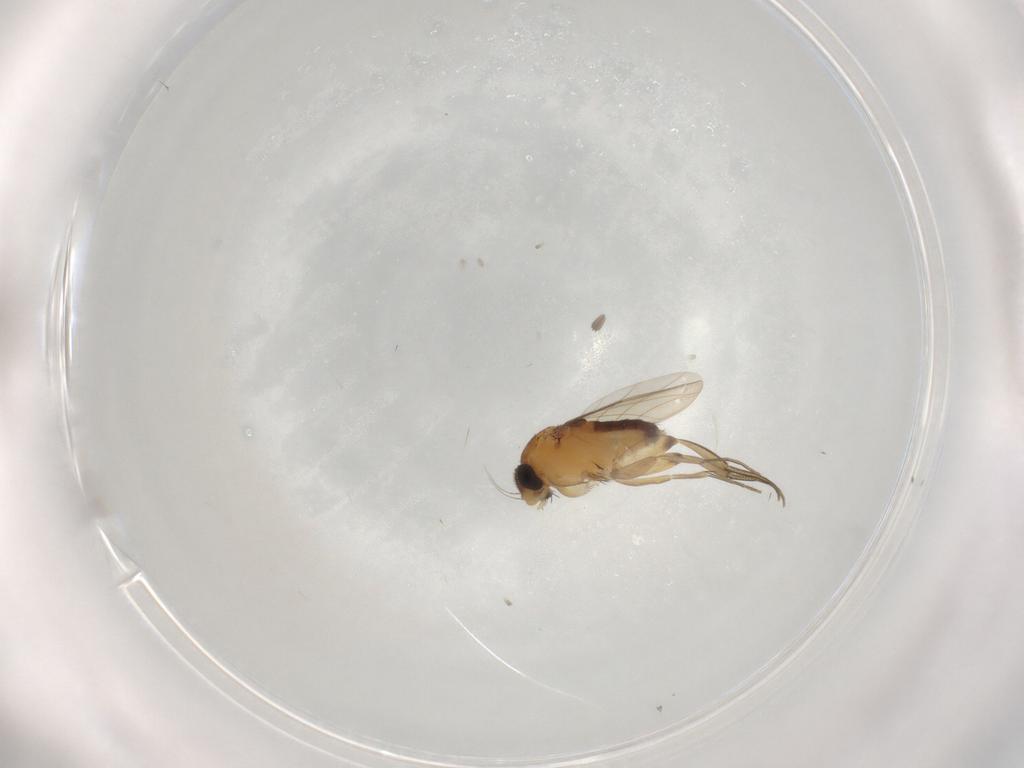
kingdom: Animalia
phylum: Arthropoda
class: Insecta
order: Diptera
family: Phoridae
